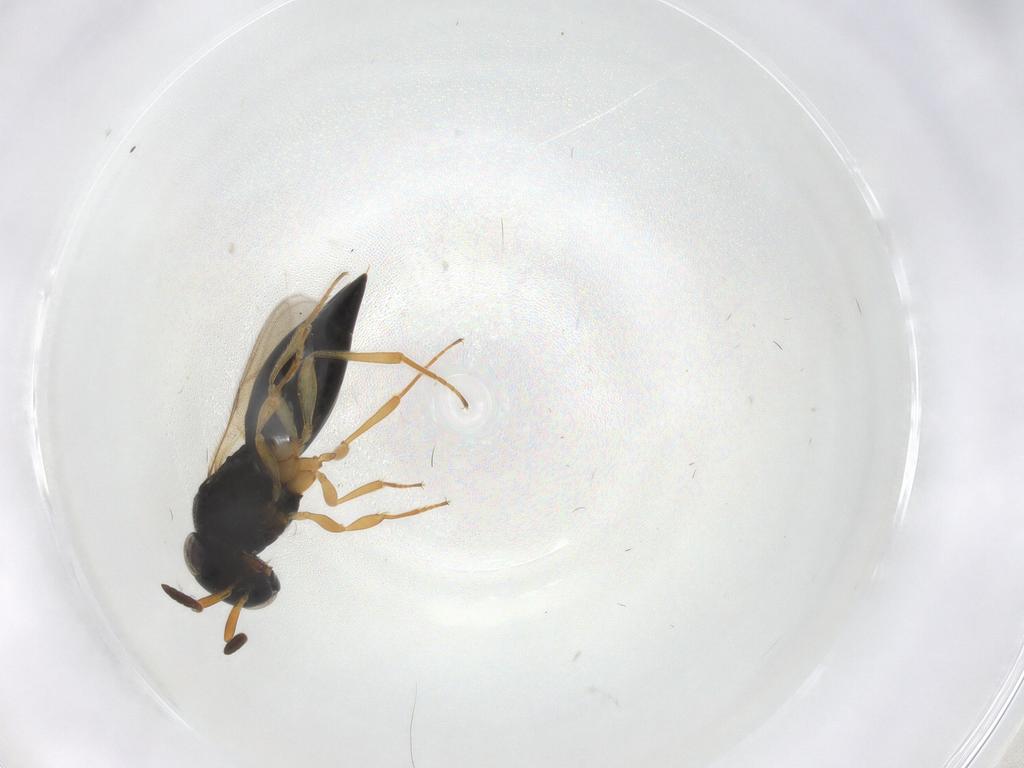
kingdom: Animalia
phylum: Arthropoda
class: Insecta
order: Hymenoptera
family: Scelionidae
